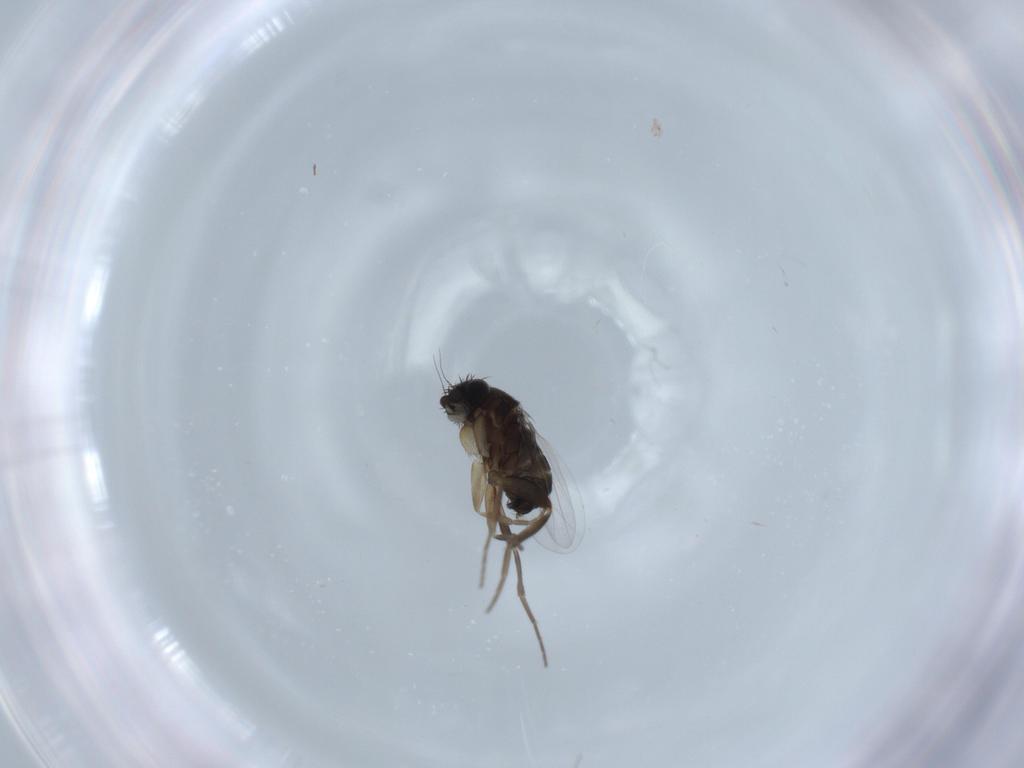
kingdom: Animalia
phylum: Arthropoda
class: Insecta
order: Diptera
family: Phoridae
